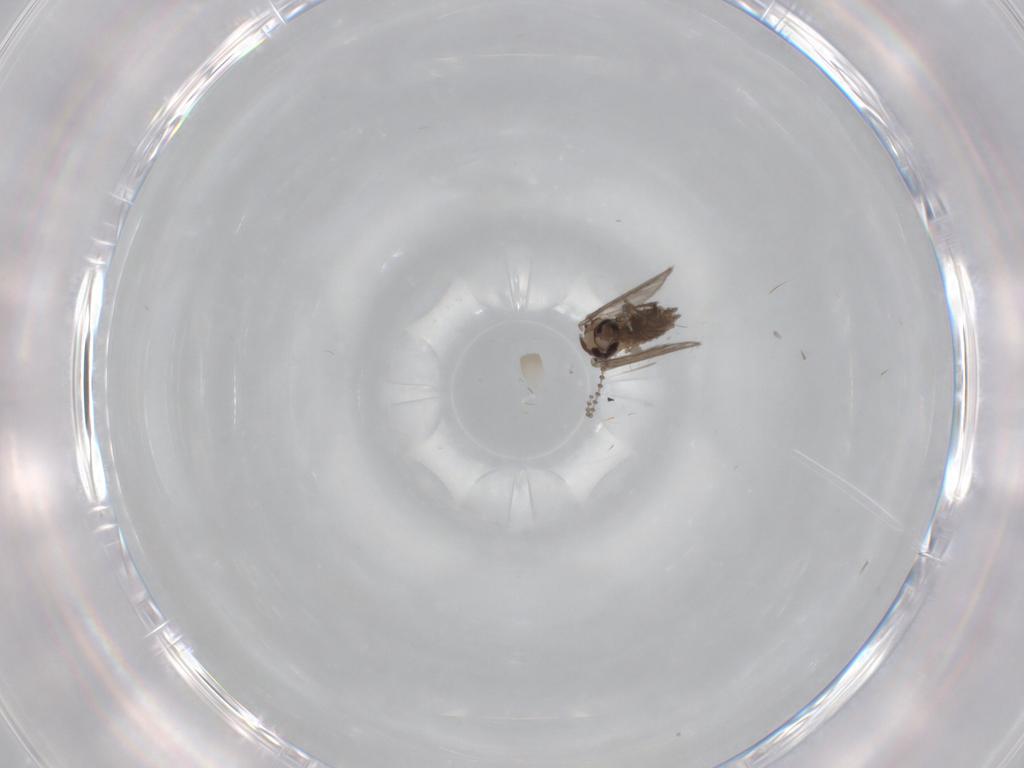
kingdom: Animalia
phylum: Arthropoda
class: Insecta
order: Diptera
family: Psychodidae
